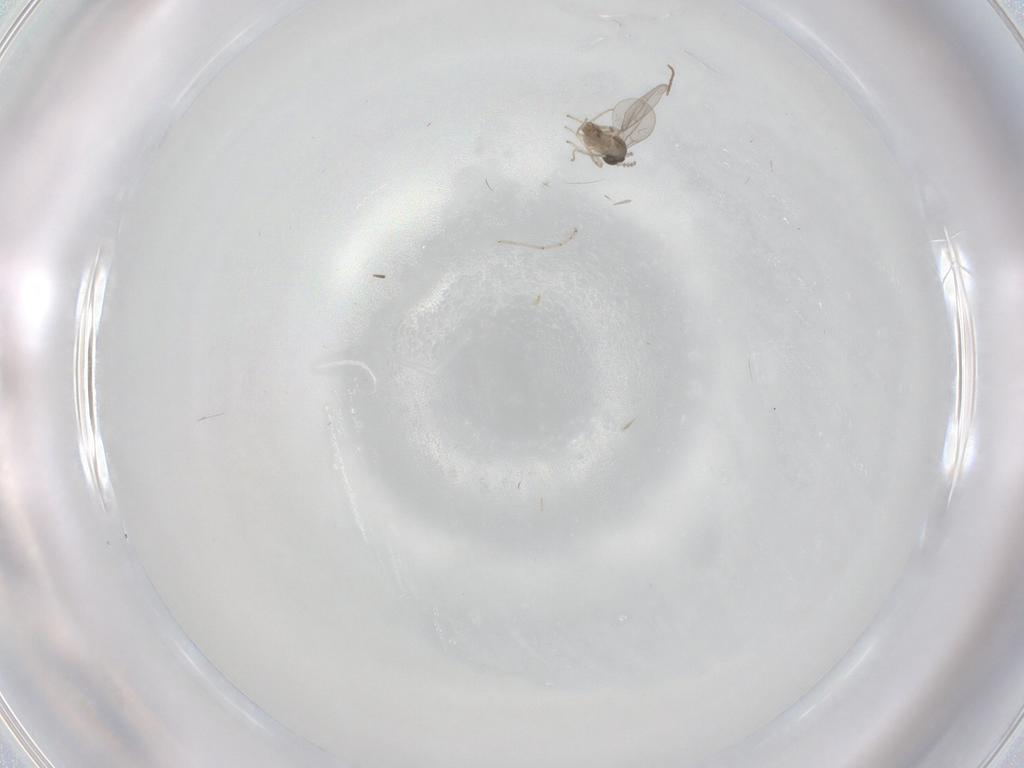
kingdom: Animalia
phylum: Arthropoda
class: Insecta
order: Diptera
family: Cecidomyiidae
